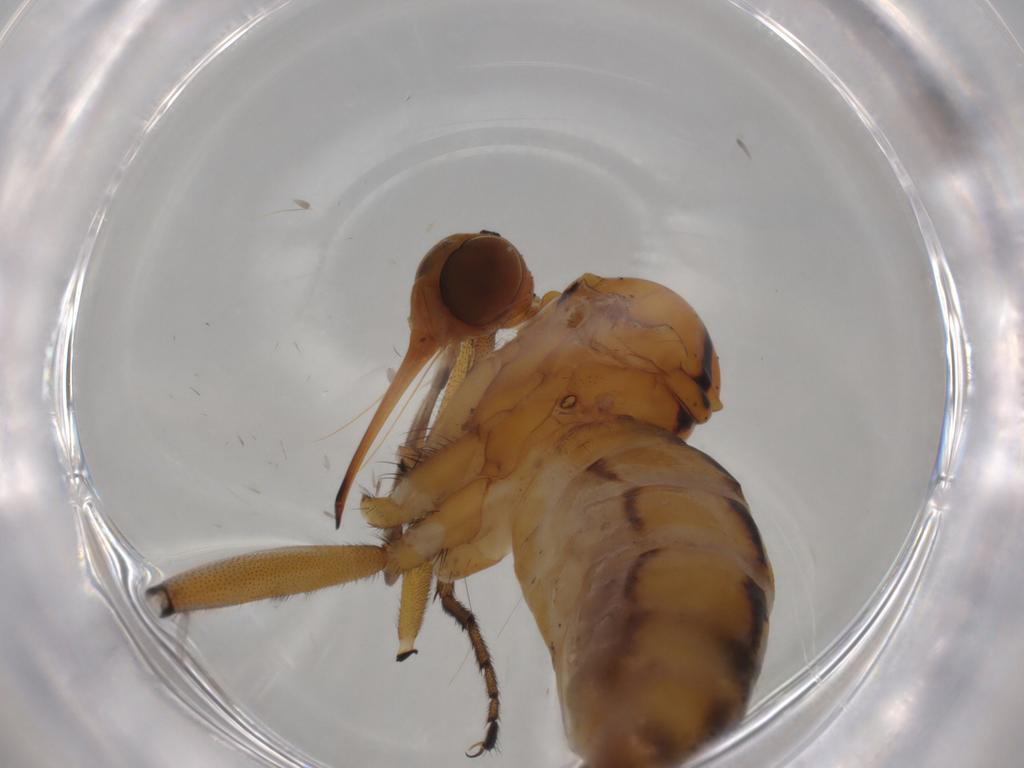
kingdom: Animalia
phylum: Arthropoda
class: Insecta
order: Diptera
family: Empididae
